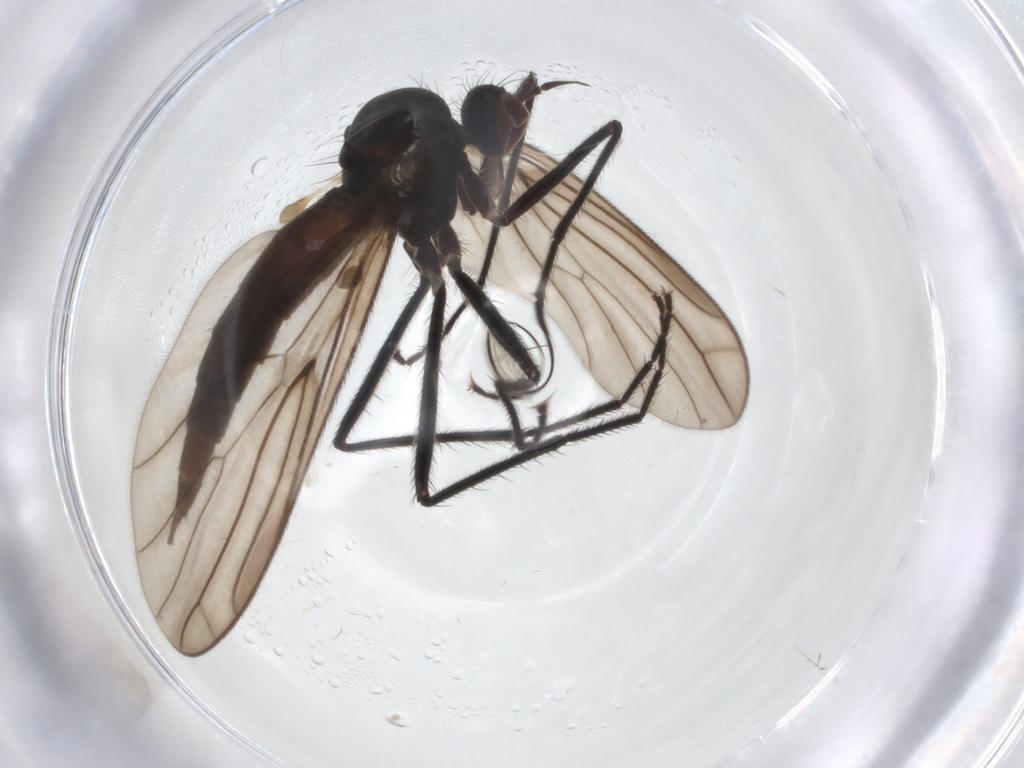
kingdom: Animalia
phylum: Arthropoda
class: Insecta
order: Diptera
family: Empididae
